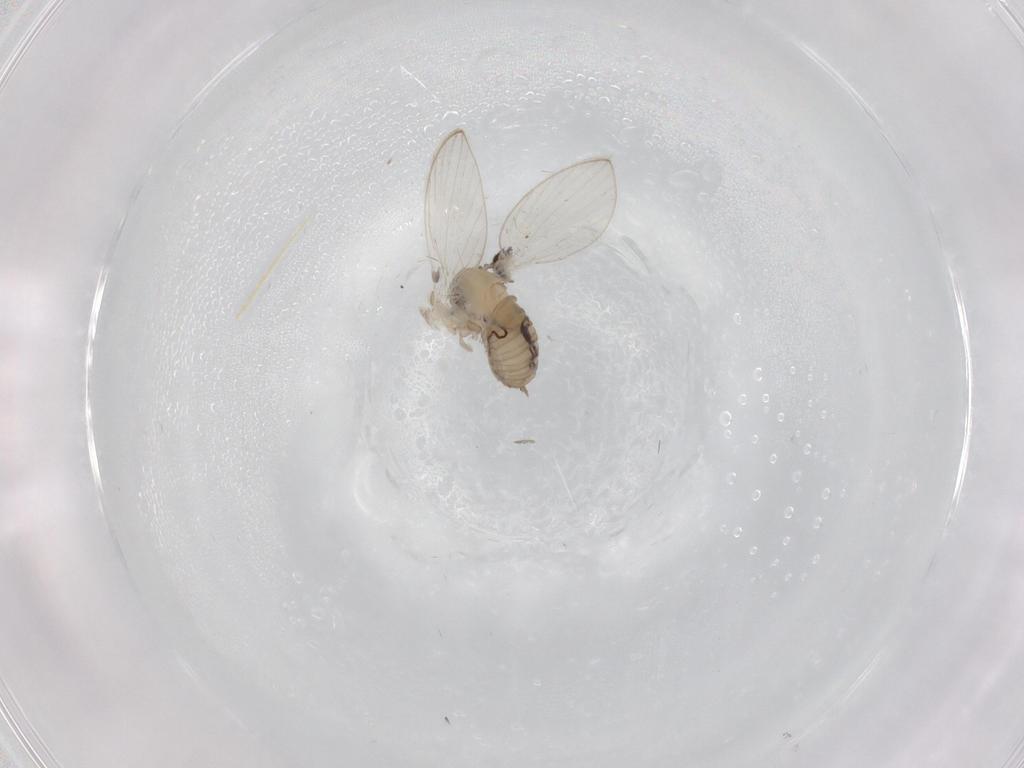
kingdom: Animalia
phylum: Arthropoda
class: Insecta
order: Diptera
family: Psychodidae
